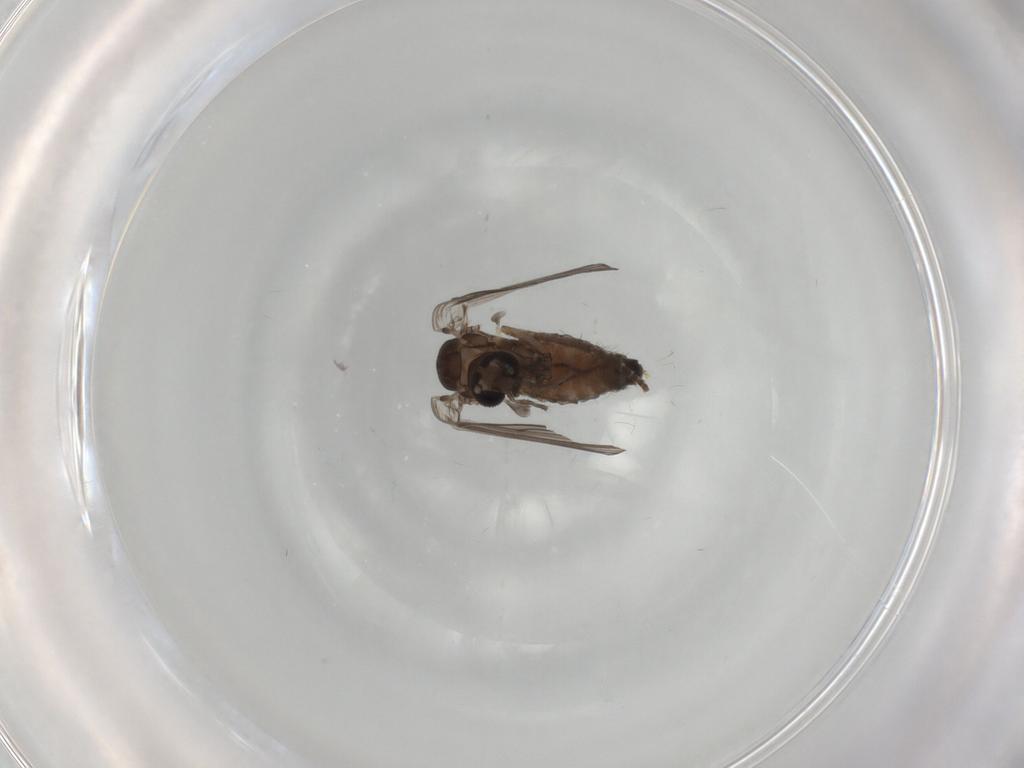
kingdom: Animalia
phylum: Arthropoda
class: Insecta
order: Diptera
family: Psychodidae
